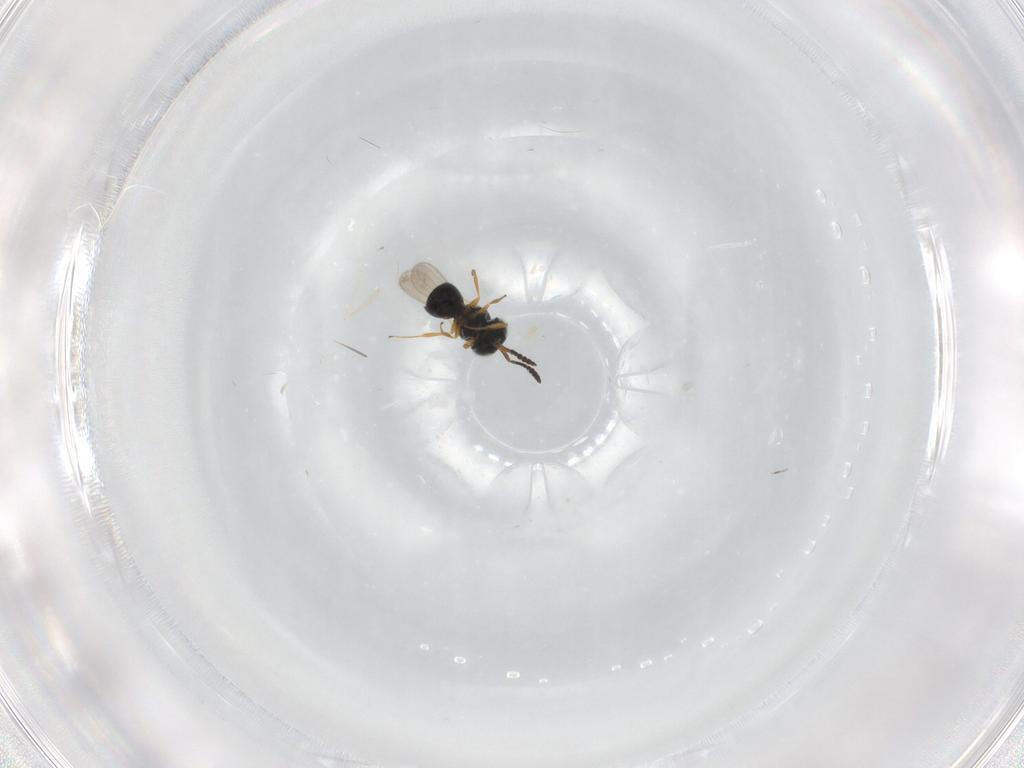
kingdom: Animalia
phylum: Arthropoda
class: Insecta
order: Hymenoptera
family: Scelionidae
